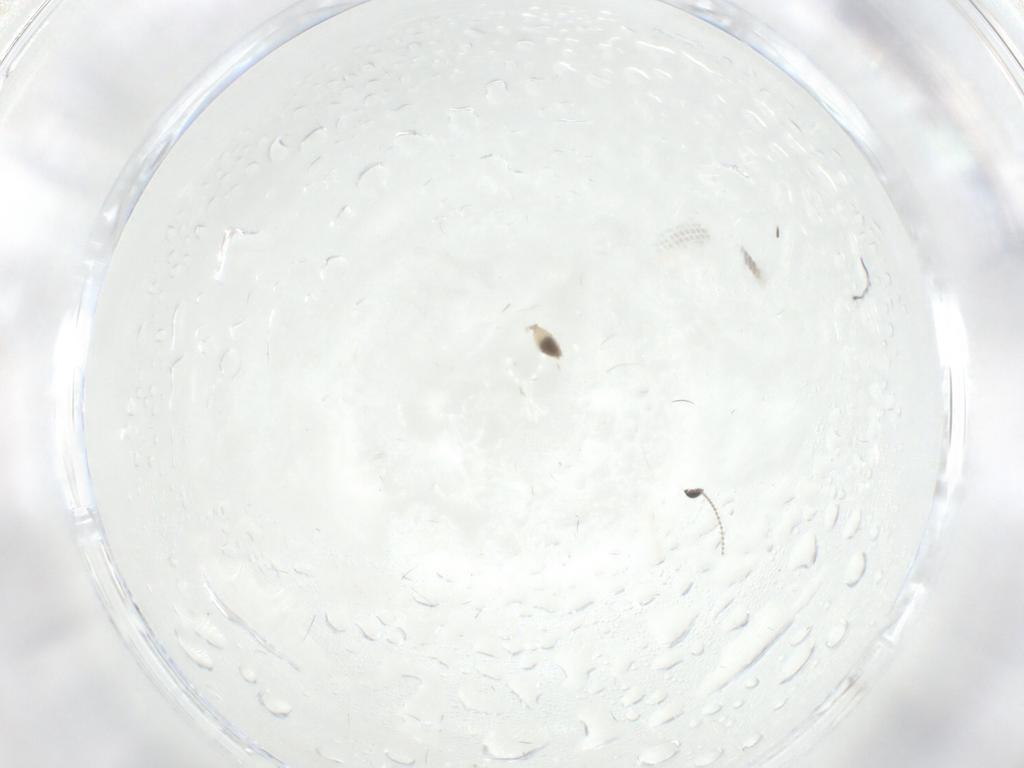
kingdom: Animalia
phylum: Arthropoda
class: Insecta
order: Diptera
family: Cecidomyiidae
